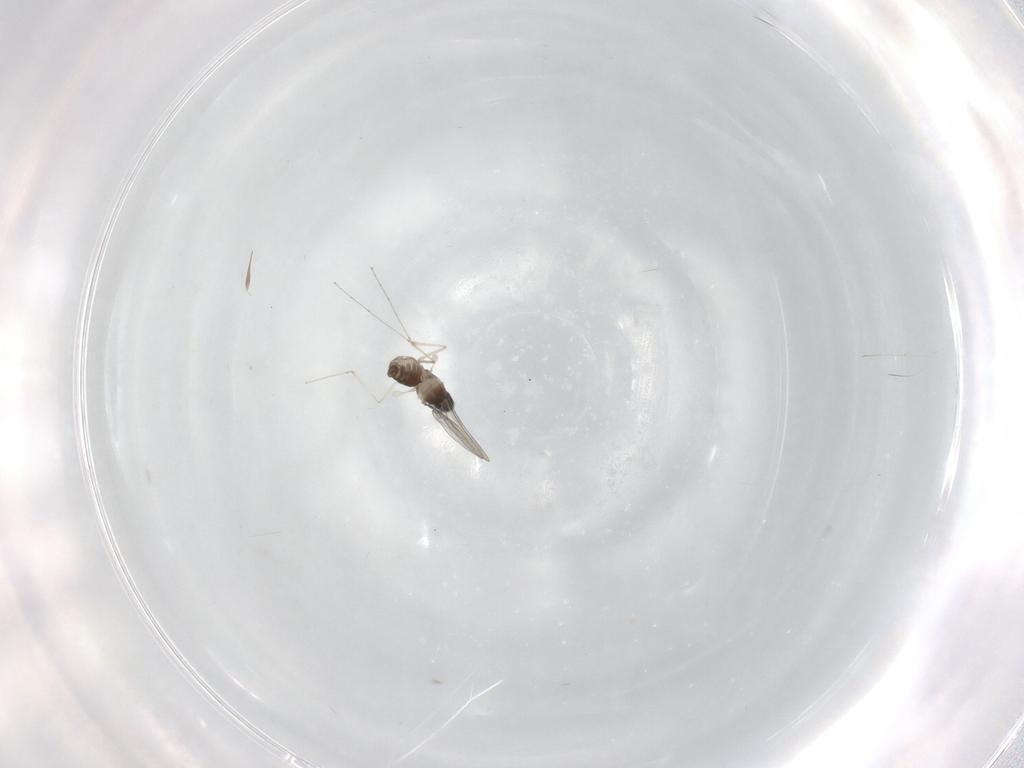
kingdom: Animalia
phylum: Arthropoda
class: Insecta
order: Diptera
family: Cecidomyiidae
